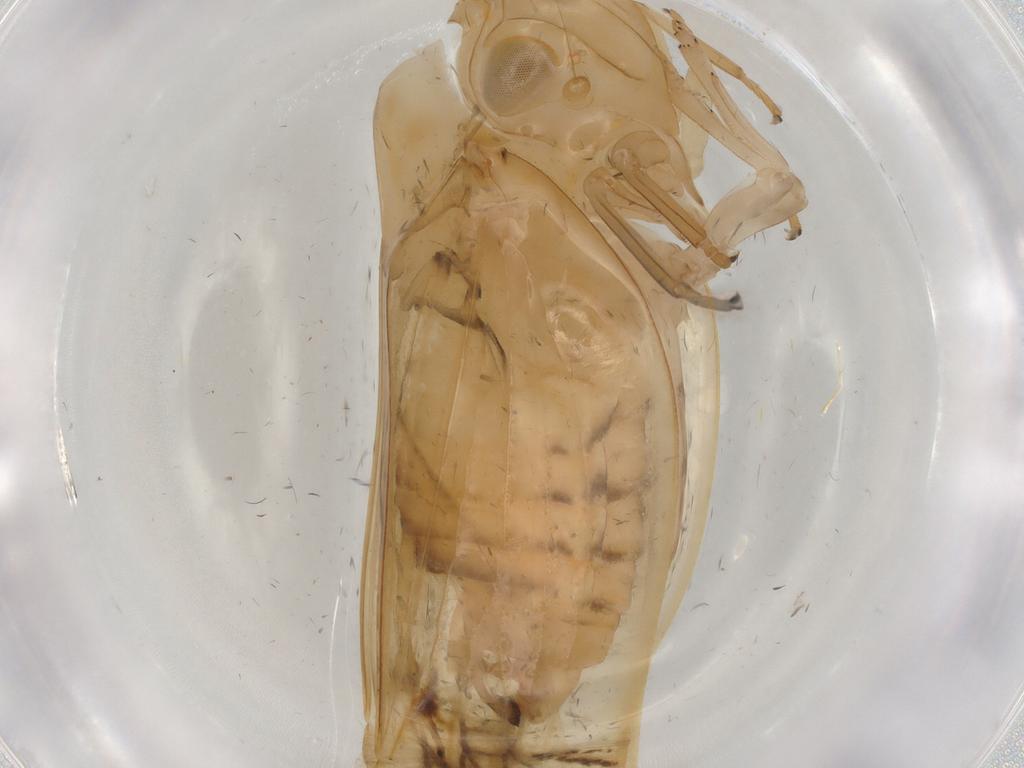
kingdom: Animalia
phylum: Arthropoda
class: Insecta
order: Hemiptera
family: Nogodinidae
